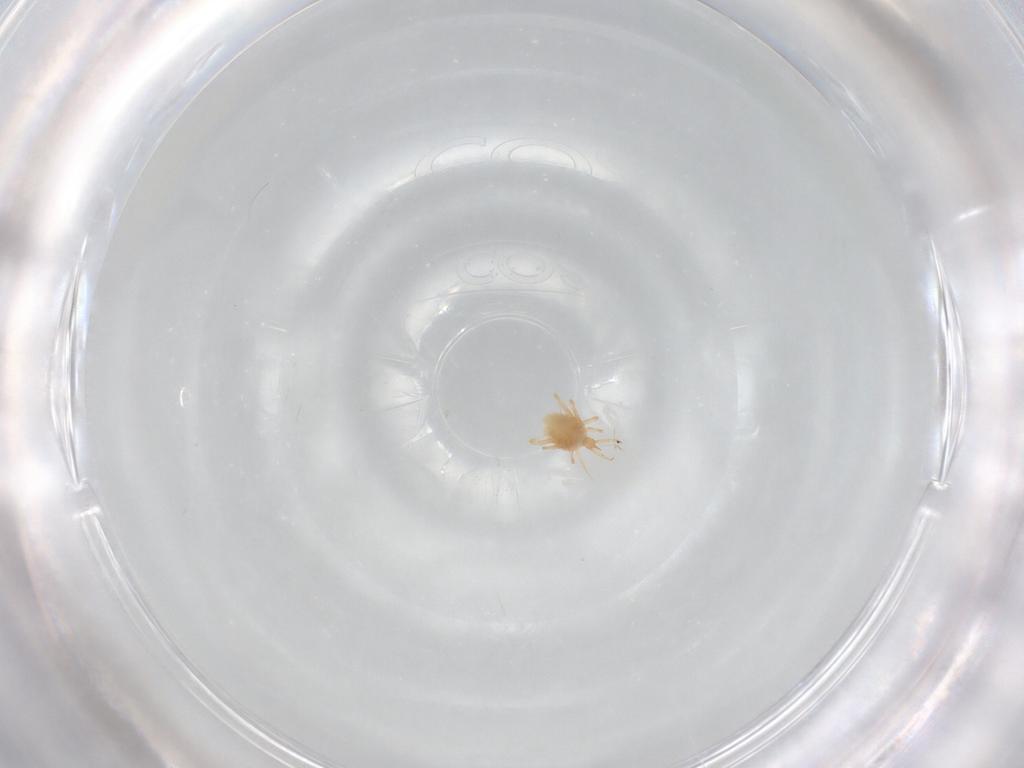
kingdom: Animalia
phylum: Arthropoda
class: Arachnida
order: Trombidiformes
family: Cunaxidae
